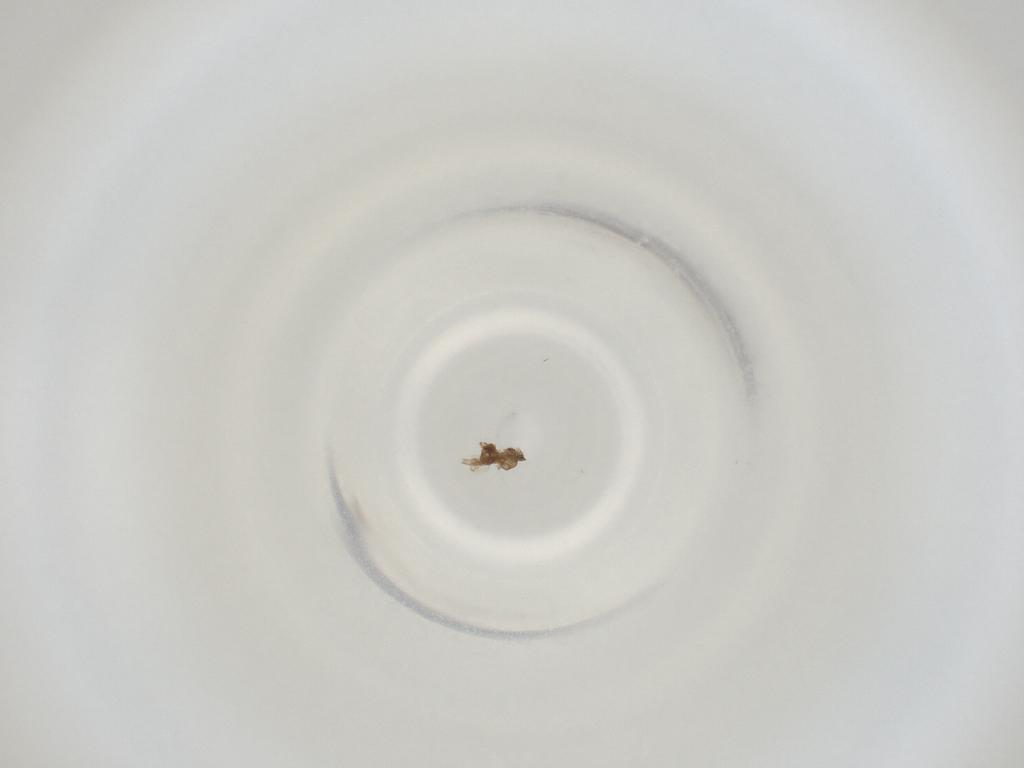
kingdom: Animalia
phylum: Arthropoda
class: Insecta
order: Diptera
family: Cecidomyiidae
